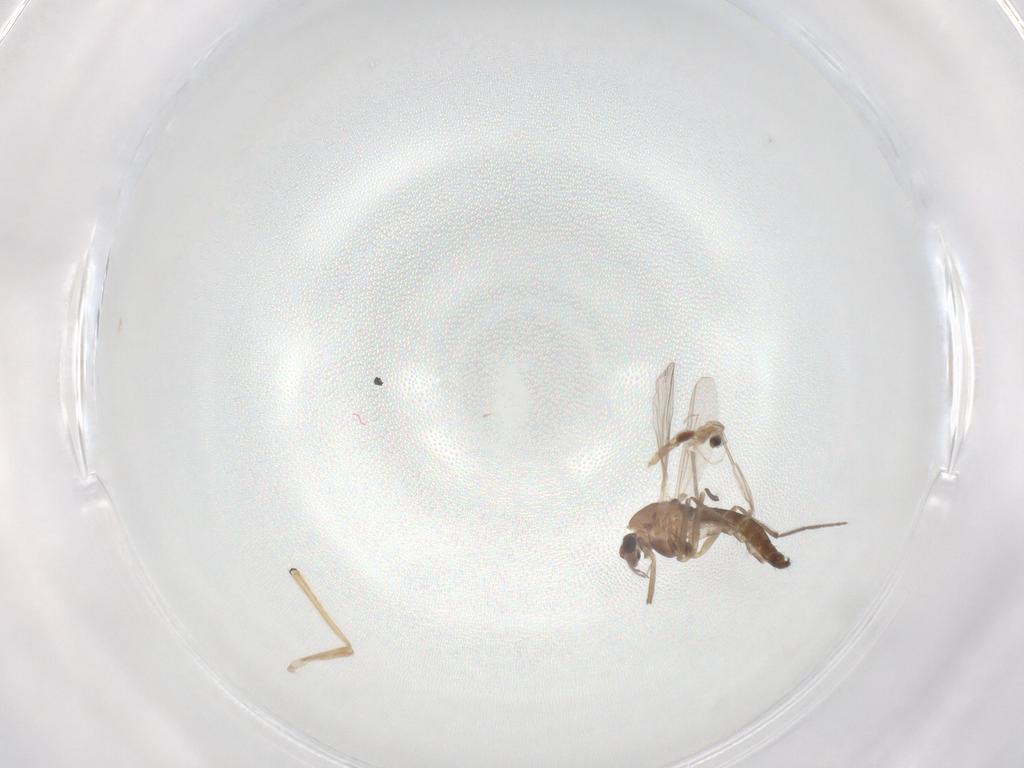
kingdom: Animalia
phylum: Arthropoda
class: Insecta
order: Diptera
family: Chironomidae
